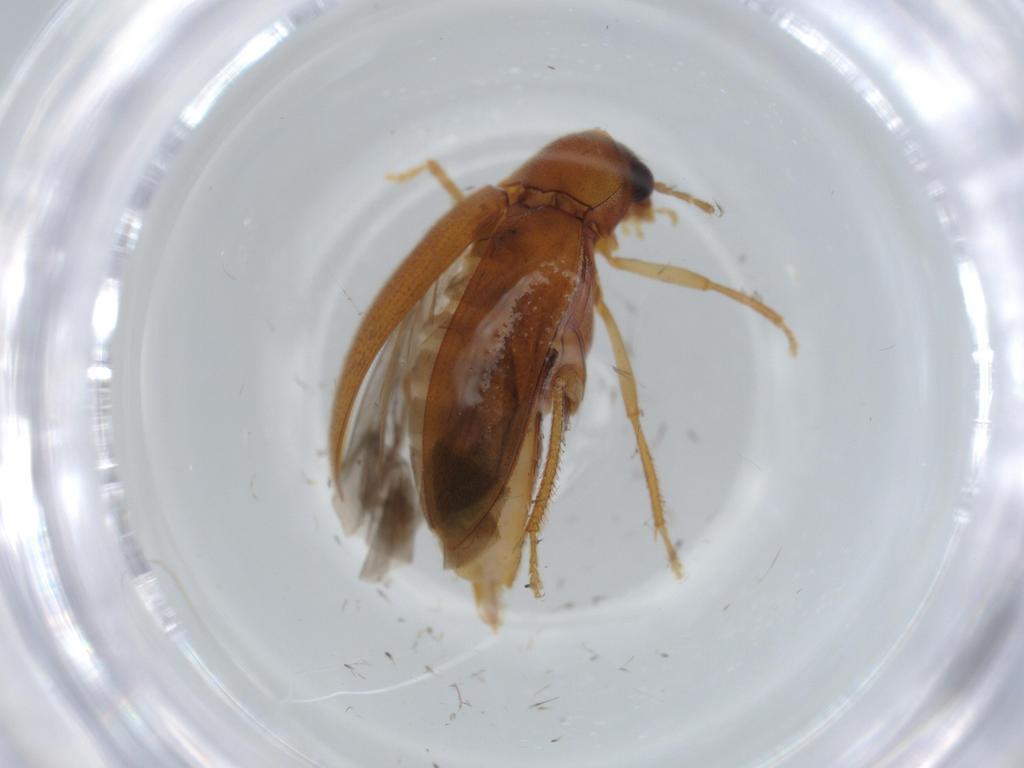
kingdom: Animalia
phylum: Arthropoda
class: Insecta
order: Coleoptera
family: Ptilodactylidae
